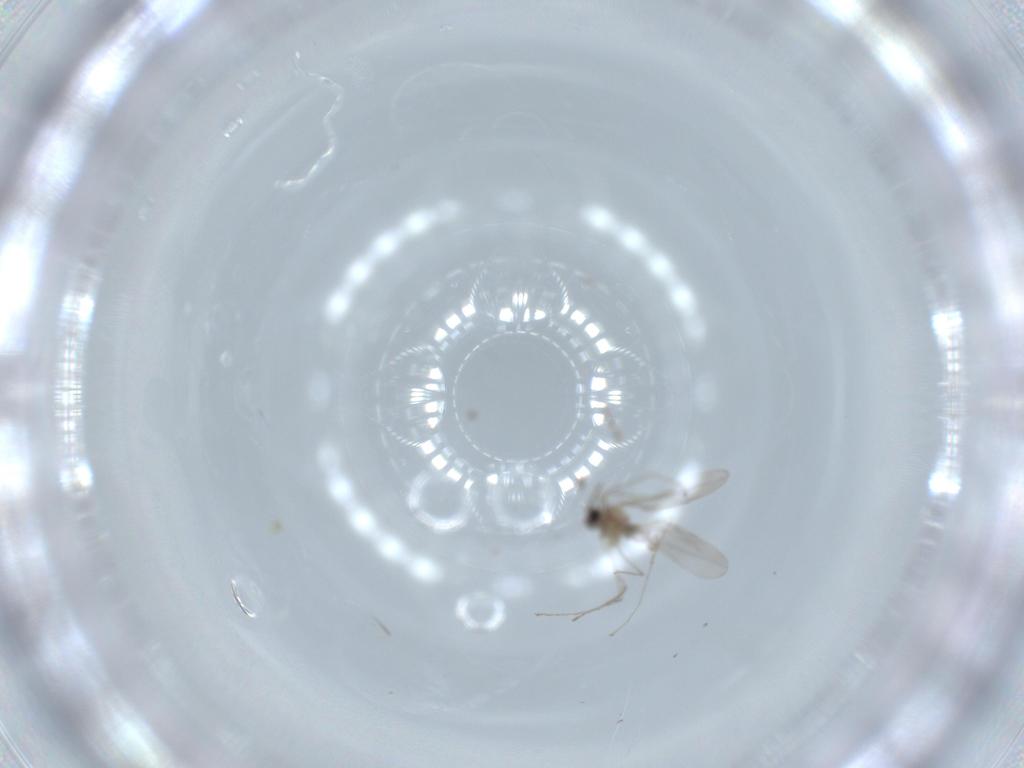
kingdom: Animalia
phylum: Arthropoda
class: Insecta
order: Diptera
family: Cecidomyiidae
